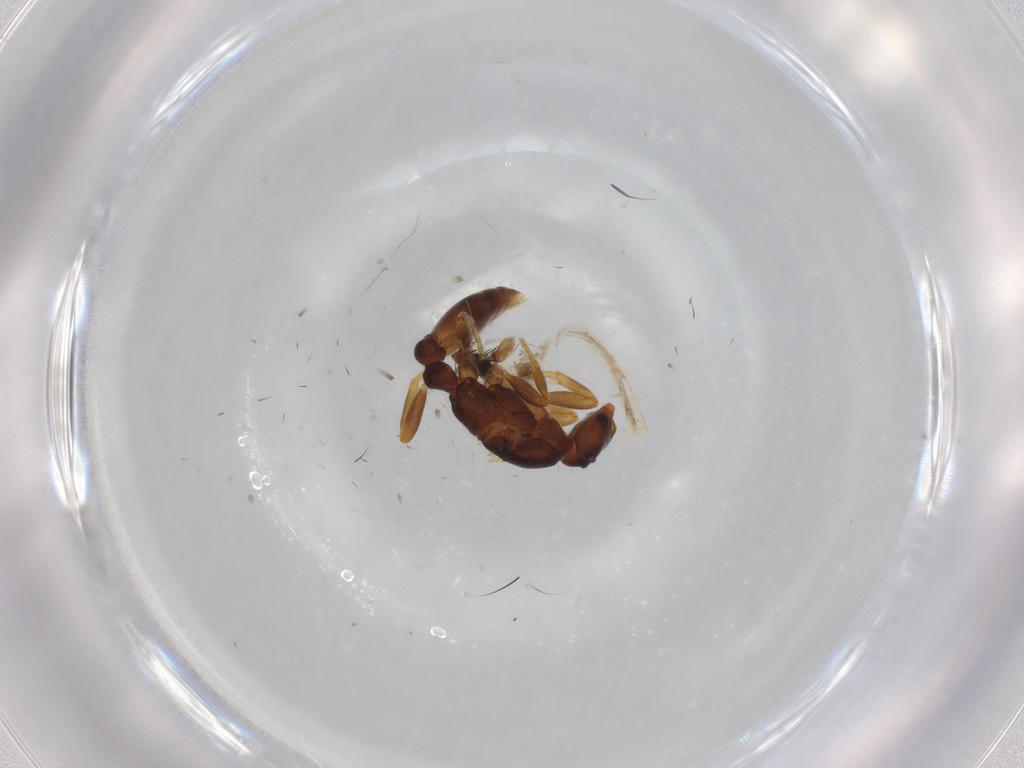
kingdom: Animalia
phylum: Arthropoda
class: Insecta
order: Hymenoptera
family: Formicidae
